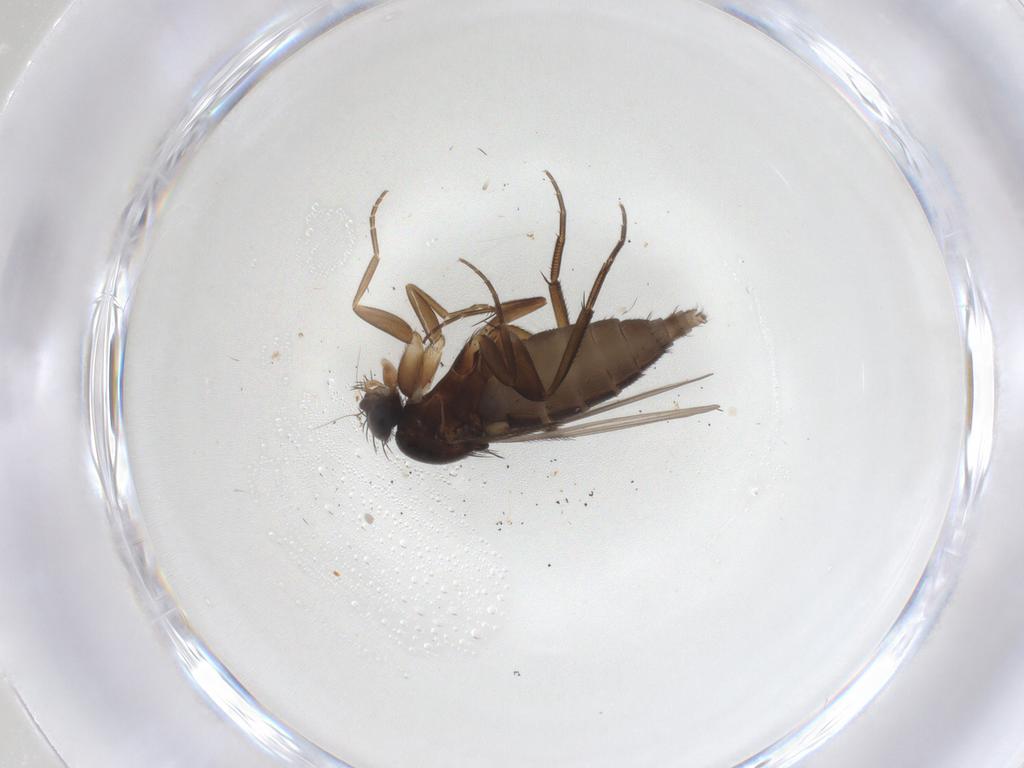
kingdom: Animalia
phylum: Arthropoda
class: Insecta
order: Diptera
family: Phoridae
